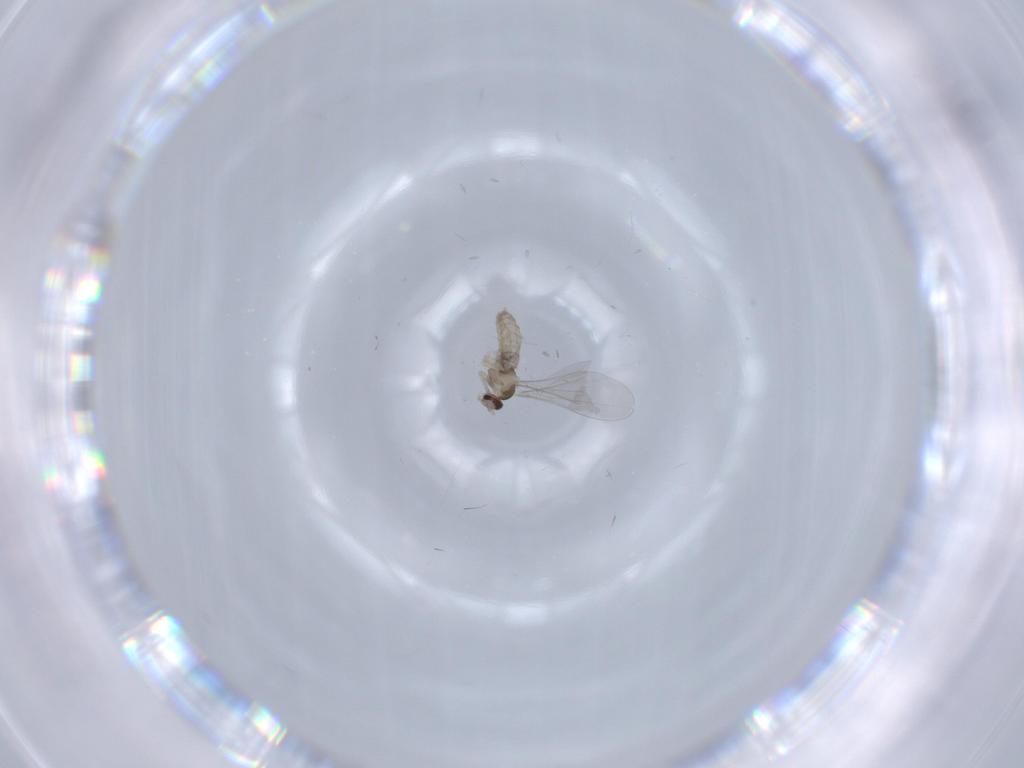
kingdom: Animalia
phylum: Arthropoda
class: Insecta
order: Diptera
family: Cecidomyiidae
